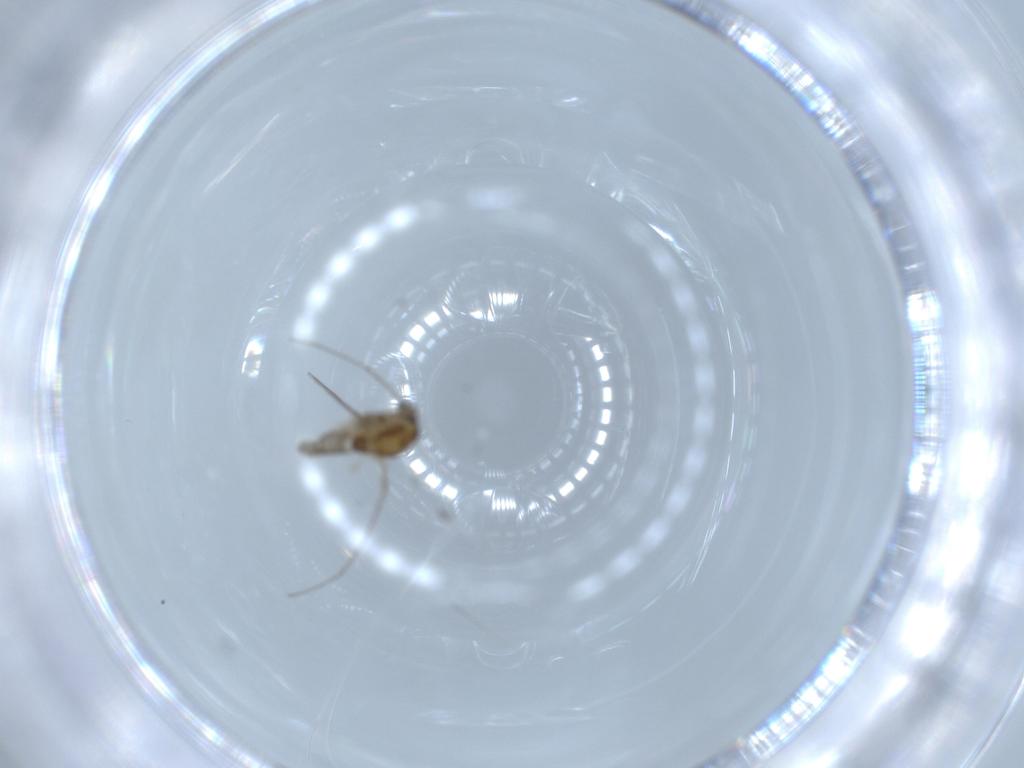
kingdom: Animalia
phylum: Arthropoda
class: Insecta
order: Diptera
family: Chironomidae
